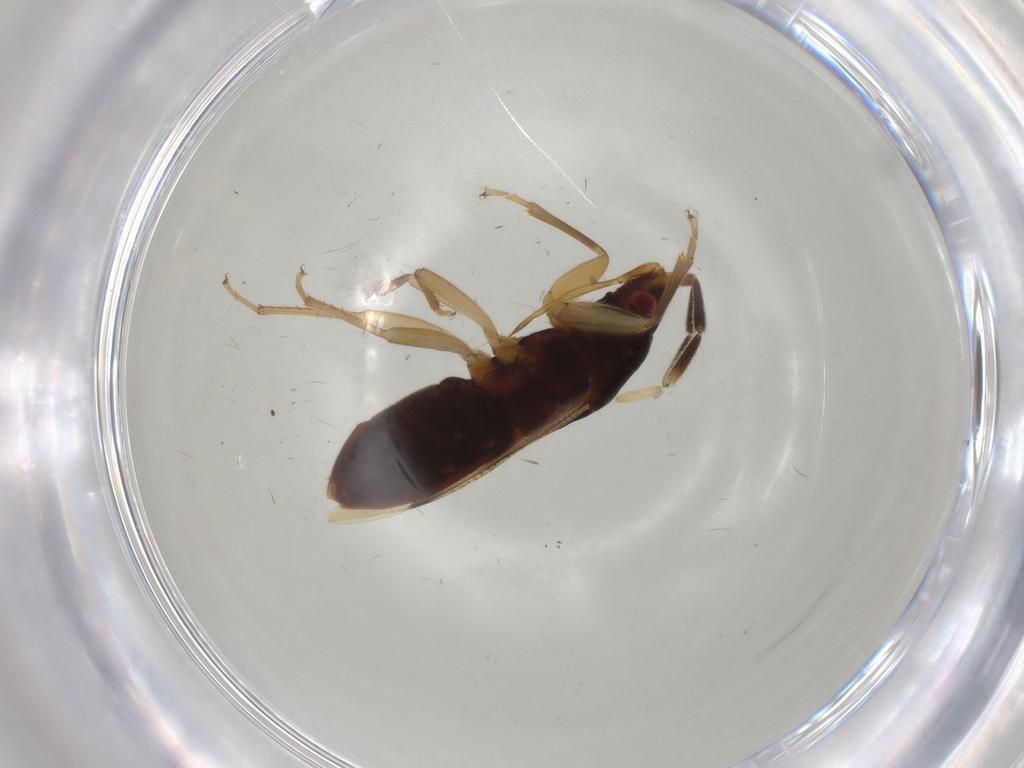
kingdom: Animalia
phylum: Arthropoda
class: Insecta
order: Hemiptera
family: Rhyparochromidae
